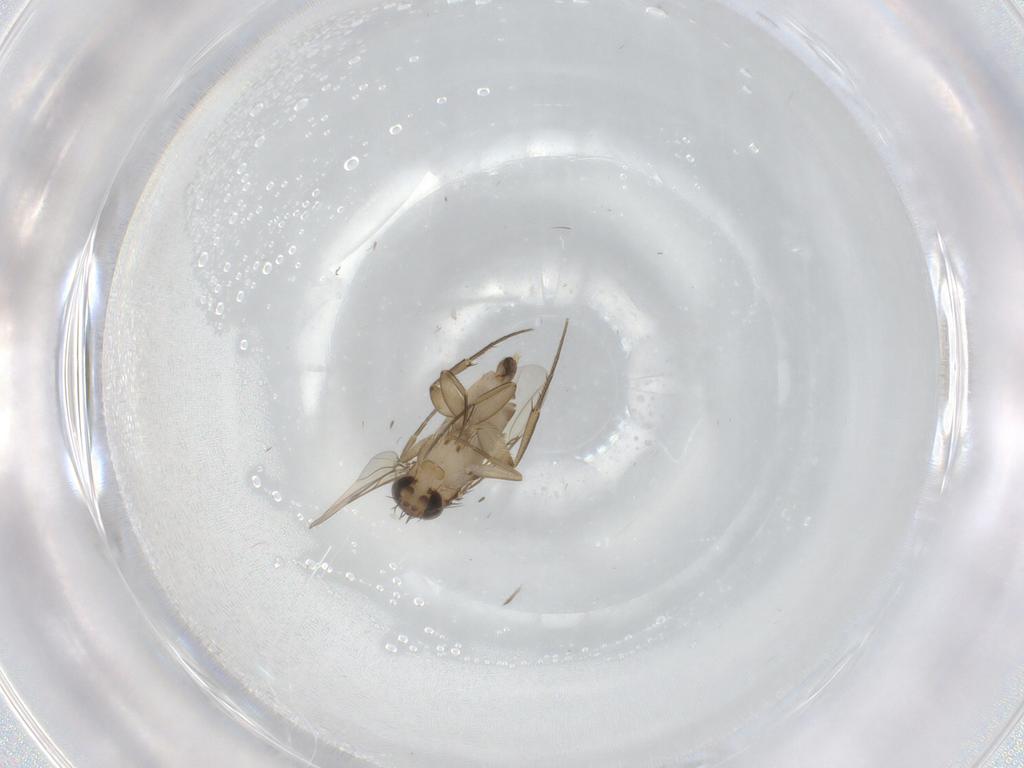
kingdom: Animalia
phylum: Arthropoda
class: Insecta
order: Diptera
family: Phoridae
